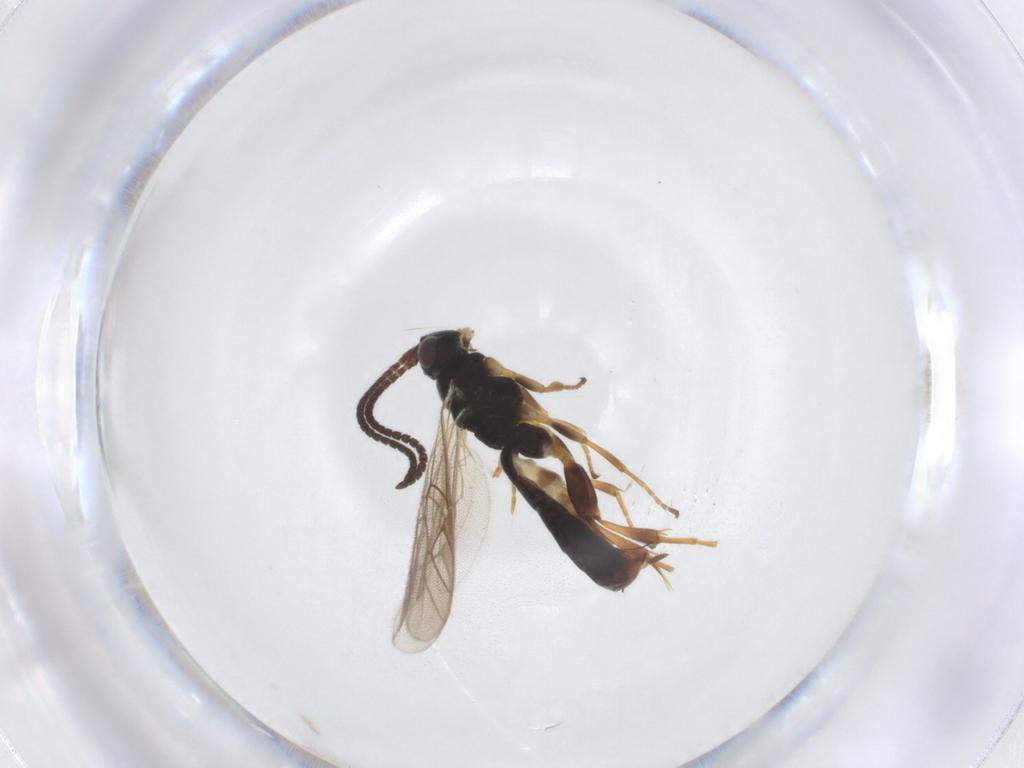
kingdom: Animalia
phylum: Arthropoda
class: Insecta
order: Hymenoptera
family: Ichneumonidae
